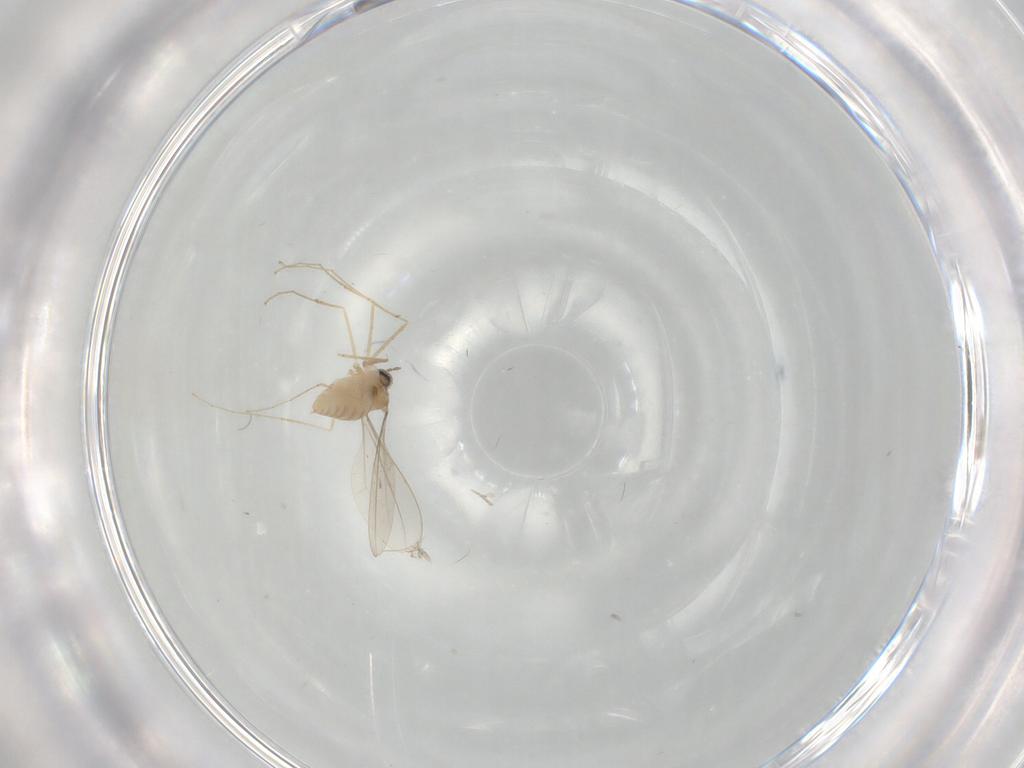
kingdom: Animalia
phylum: Arthropoda
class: Insecta
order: Diptera
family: Cecidomyiidae
